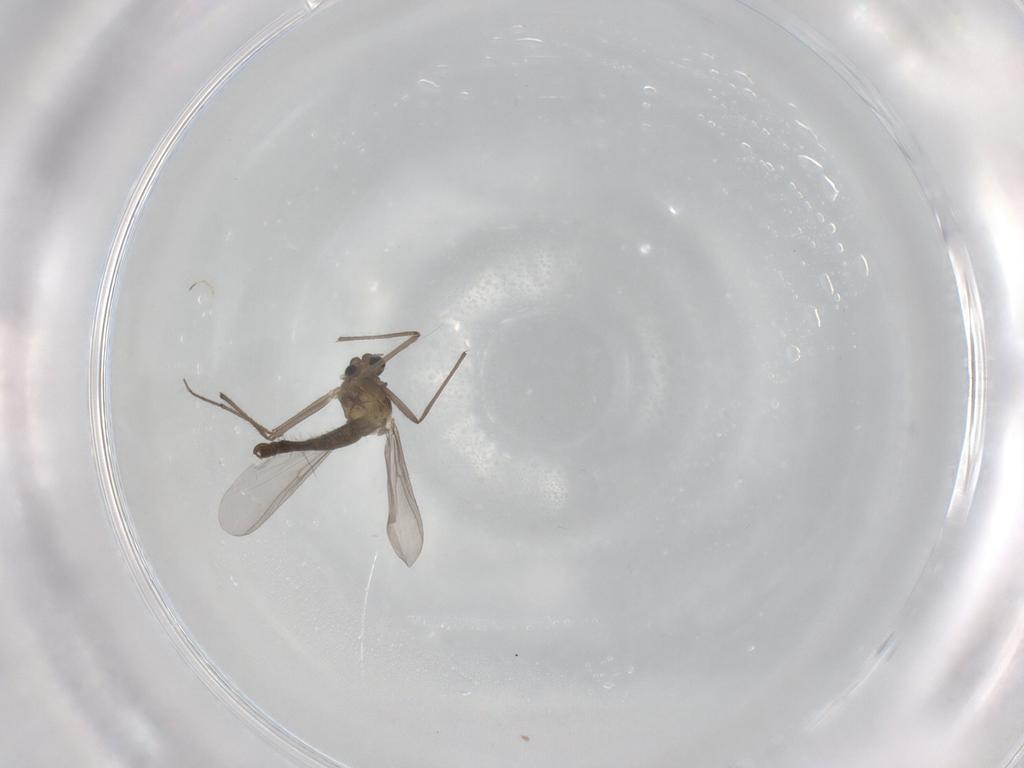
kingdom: Animalia
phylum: Arthropoda
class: Insecta
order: Diptera
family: Chironomidae
